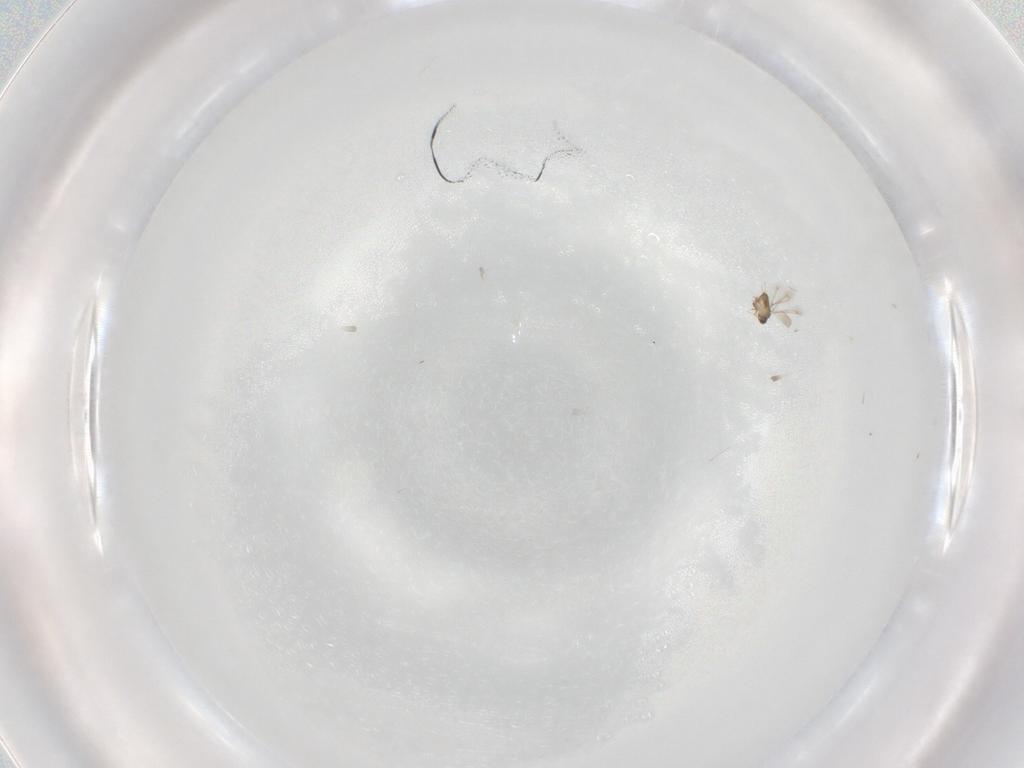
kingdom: Animalia
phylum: Arthropoda
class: Insecta
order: Hymenoptera
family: Mymaridae
